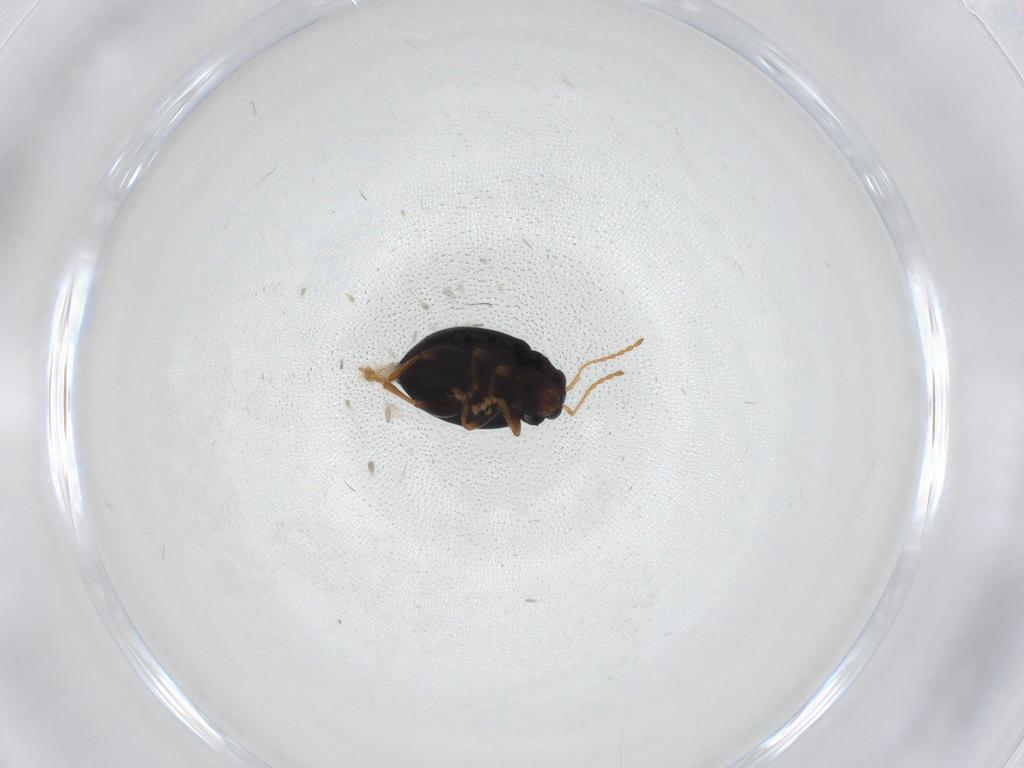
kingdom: Animalia
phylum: Arthropoda
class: Insecta
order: Coleoptera
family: Chrysomelidae
